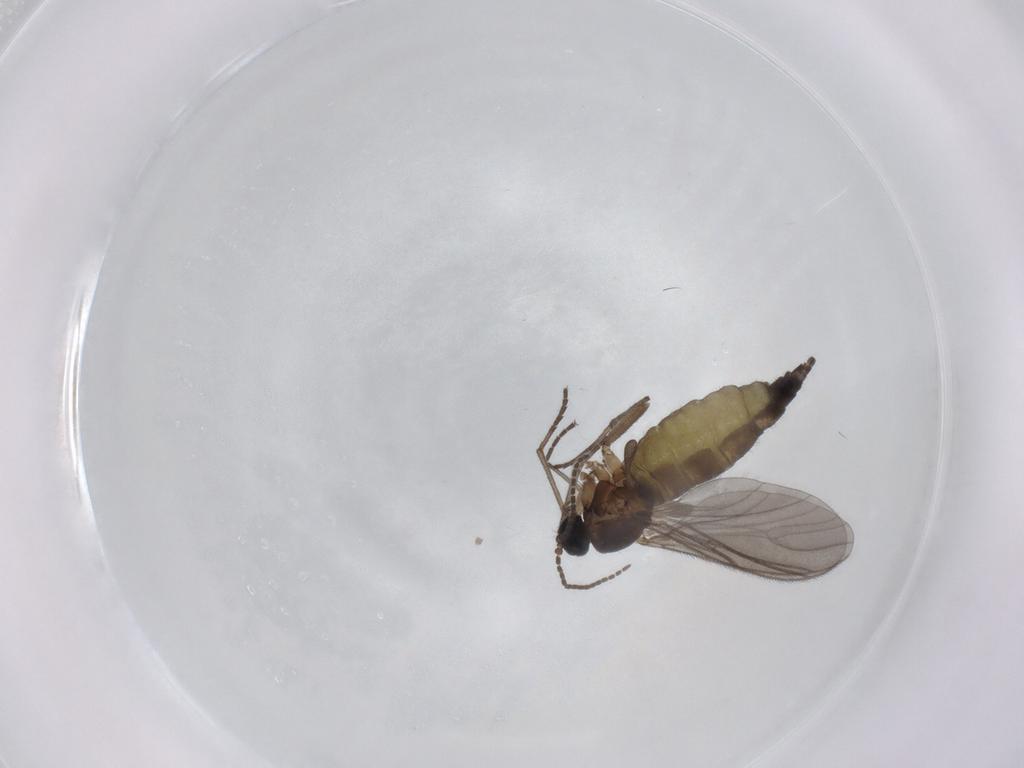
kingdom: Animalia
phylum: Arthropoda
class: Insecta
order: Diptera
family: Sciaridae
